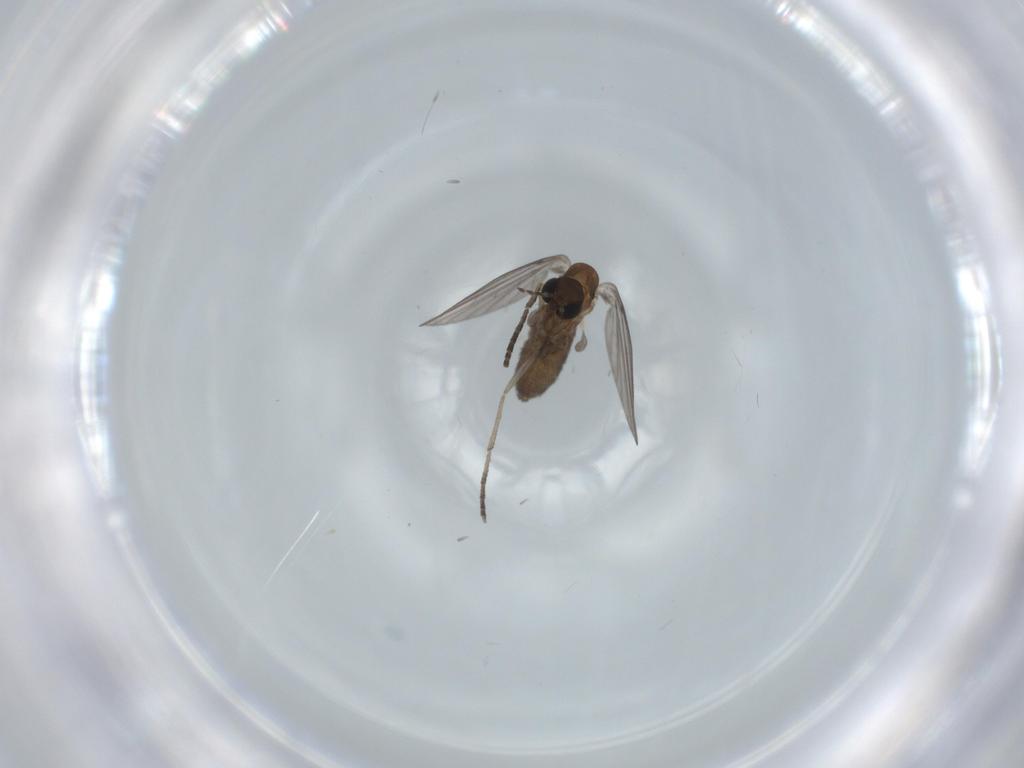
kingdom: Animalia
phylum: Arthropoda
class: Insecta
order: Diptera
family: Psychodidae
